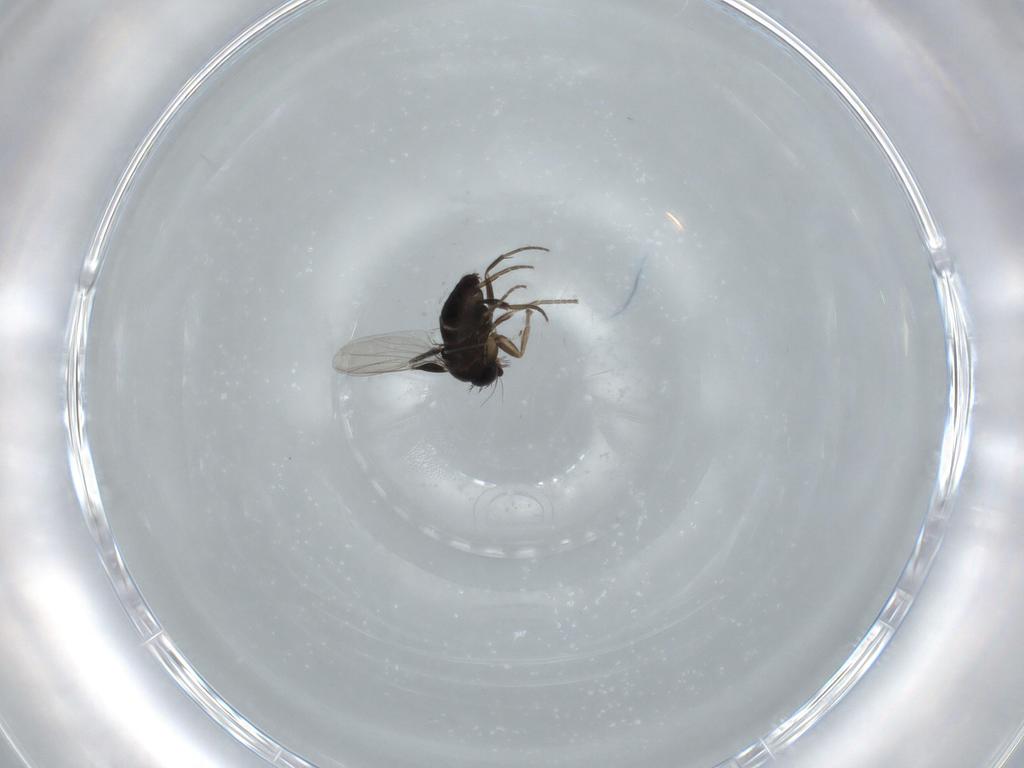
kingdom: Animalia
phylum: Arthropoda
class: Insecta
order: Diptera
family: Phoridae
